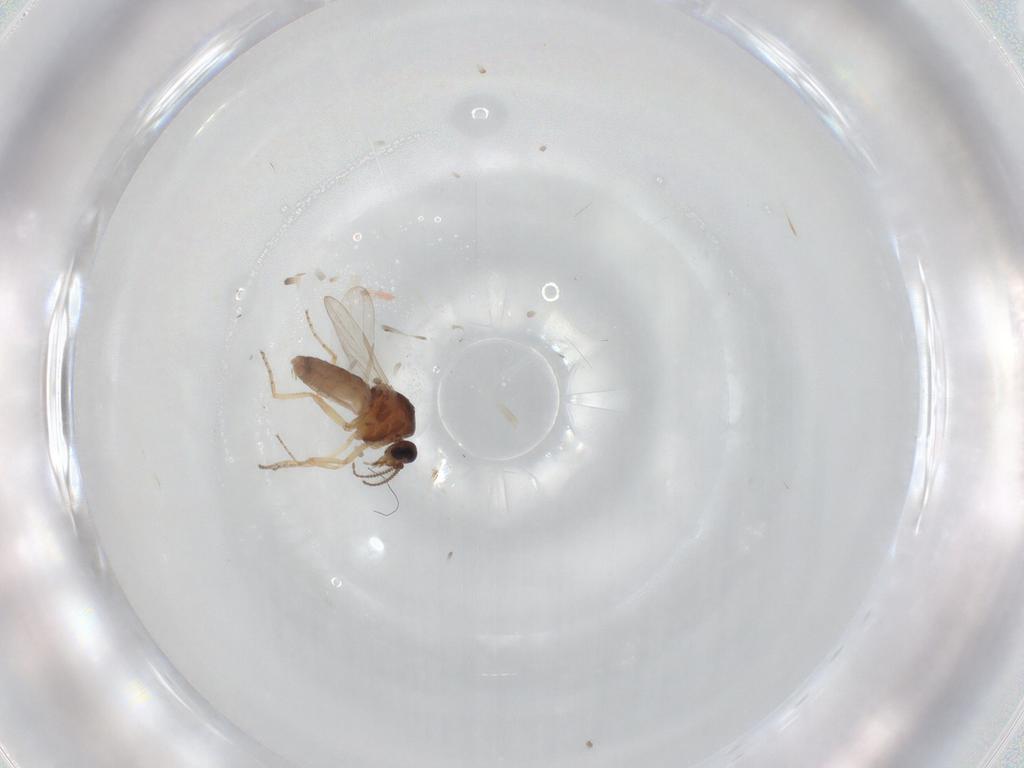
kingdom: Animalia
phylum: Arthropoda
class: Insecta
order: Diptera
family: Ceratopogonidae
